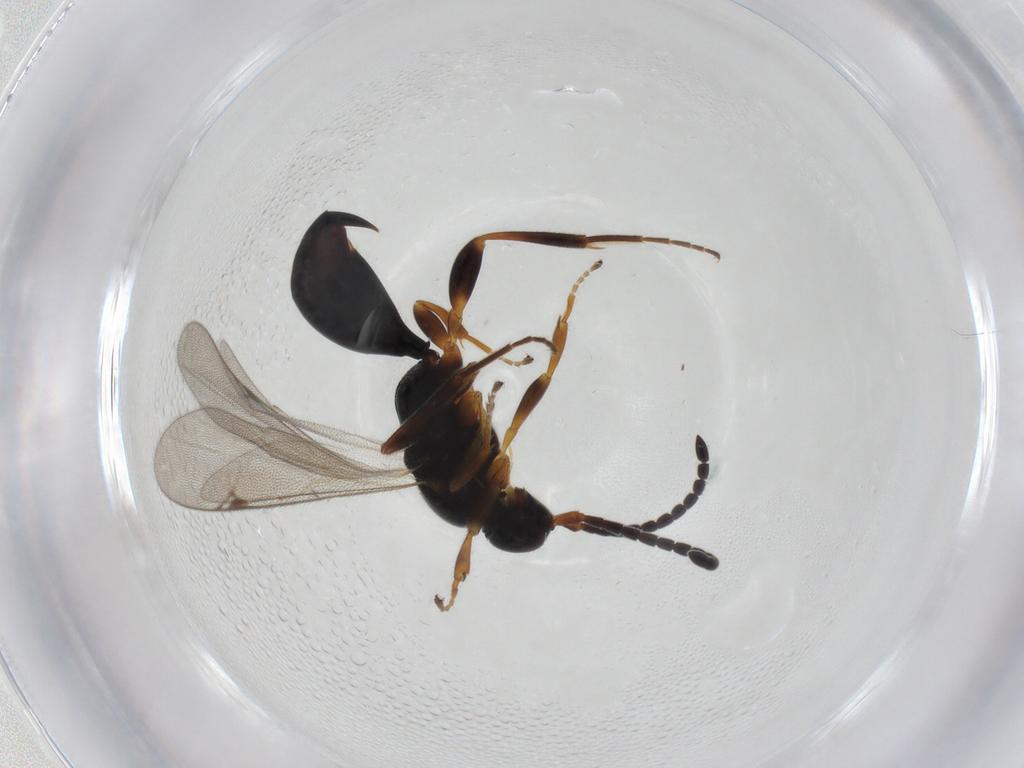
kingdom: Animalia
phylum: Arthropoda
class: Insecta
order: Hymenoptera
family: Proctotrupidae
